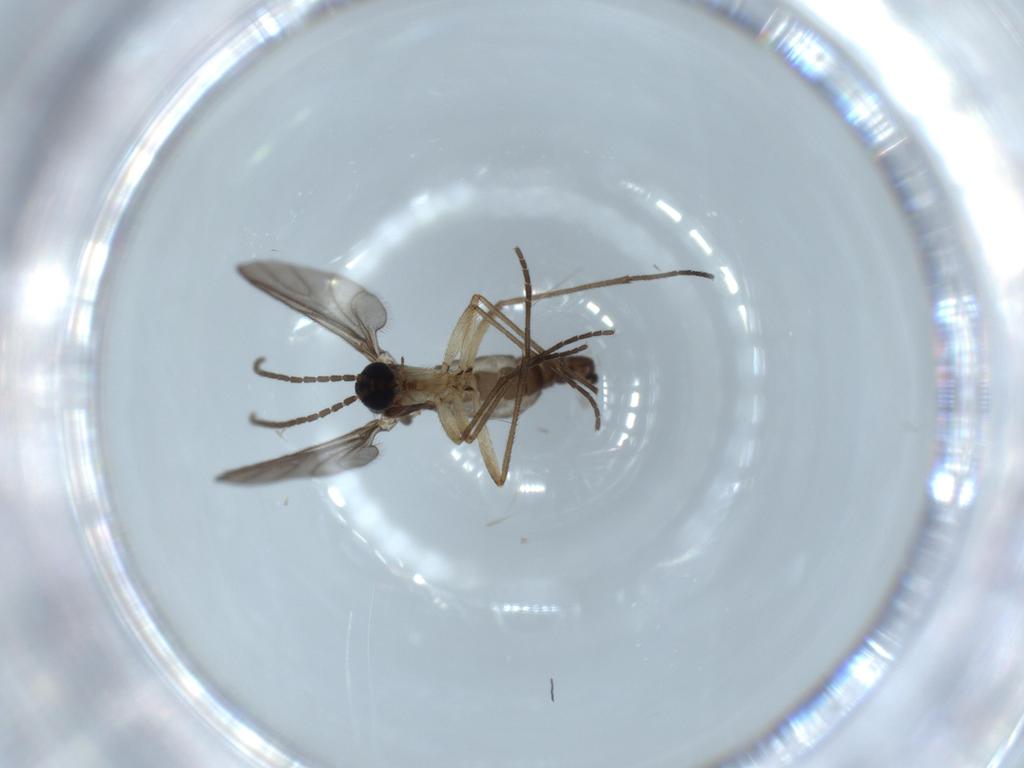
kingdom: Animalia
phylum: Arthropoda
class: Insecta
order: Diptera
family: Sciaridae
